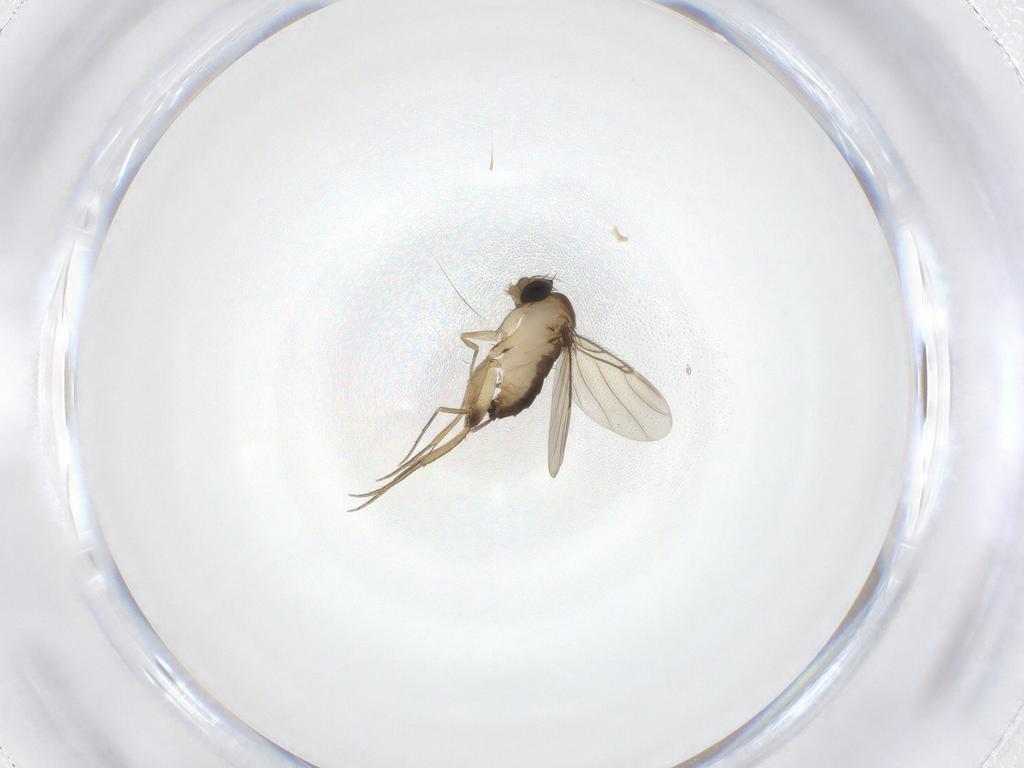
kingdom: Animalia
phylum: Arthropoda
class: Insecta
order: Diptera
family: Phoridae
